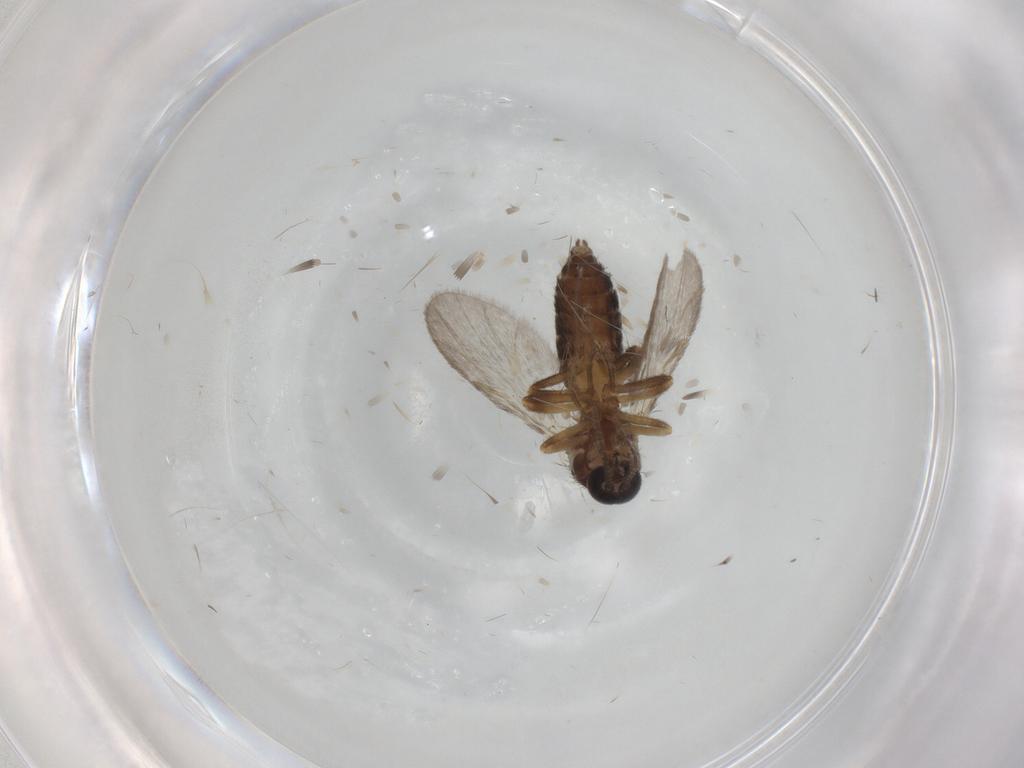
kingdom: Animalia
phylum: Arthropoda
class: Insecta
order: Diptera
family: Ceratopogonidae
